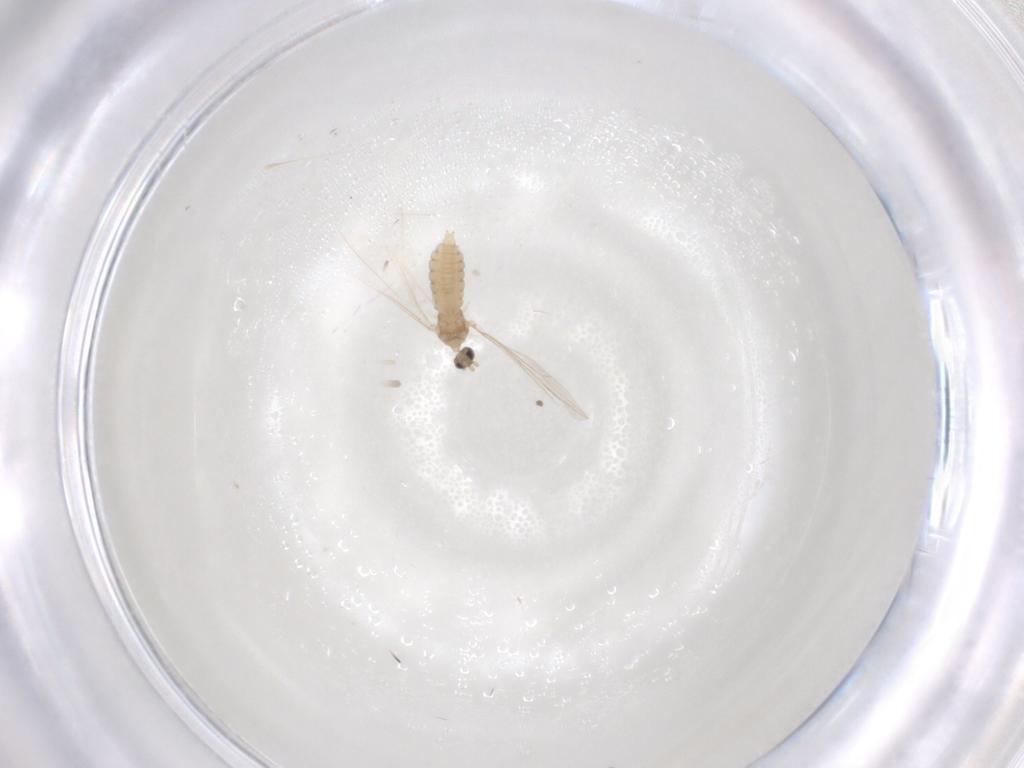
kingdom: Animalia
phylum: Arthropoda
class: Insecta
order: Diptera
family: Cecidomyiidae
